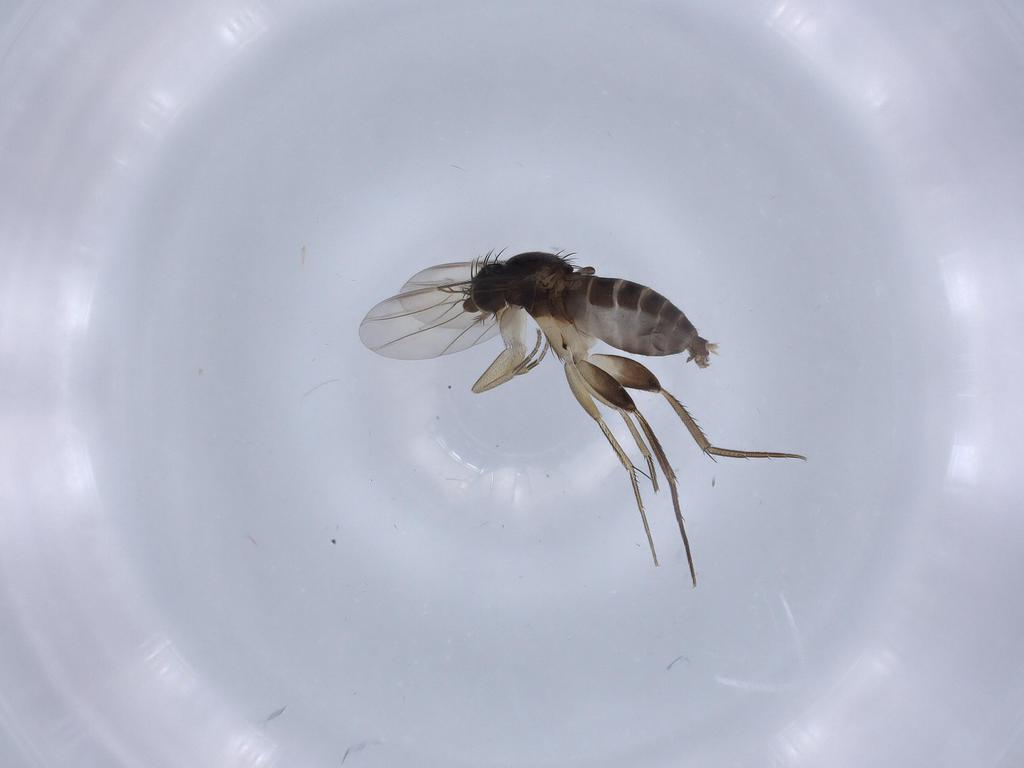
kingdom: Animalia
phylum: Arthropoda
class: Insecta
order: Diptera
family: Phoridae
